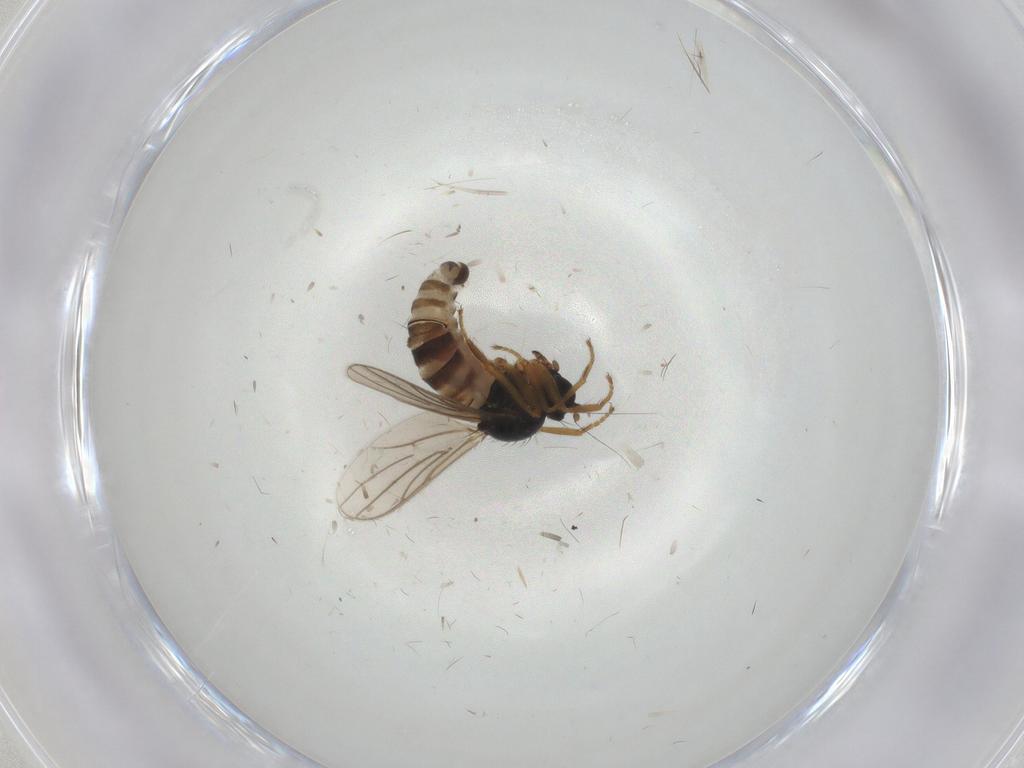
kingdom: Animalia
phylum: Arthropoda
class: Insecta
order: Diptera
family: Hybotidae
